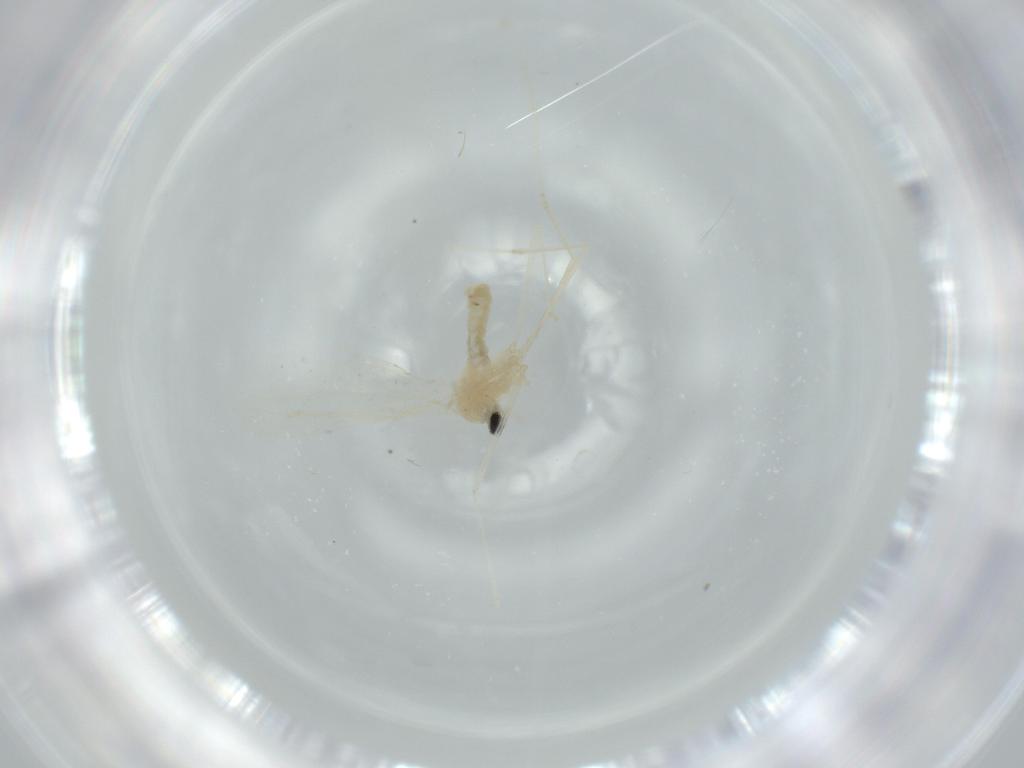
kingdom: Animalia
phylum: Arthropoda
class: Insecta
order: Diptera
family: Cecidomyiidae
